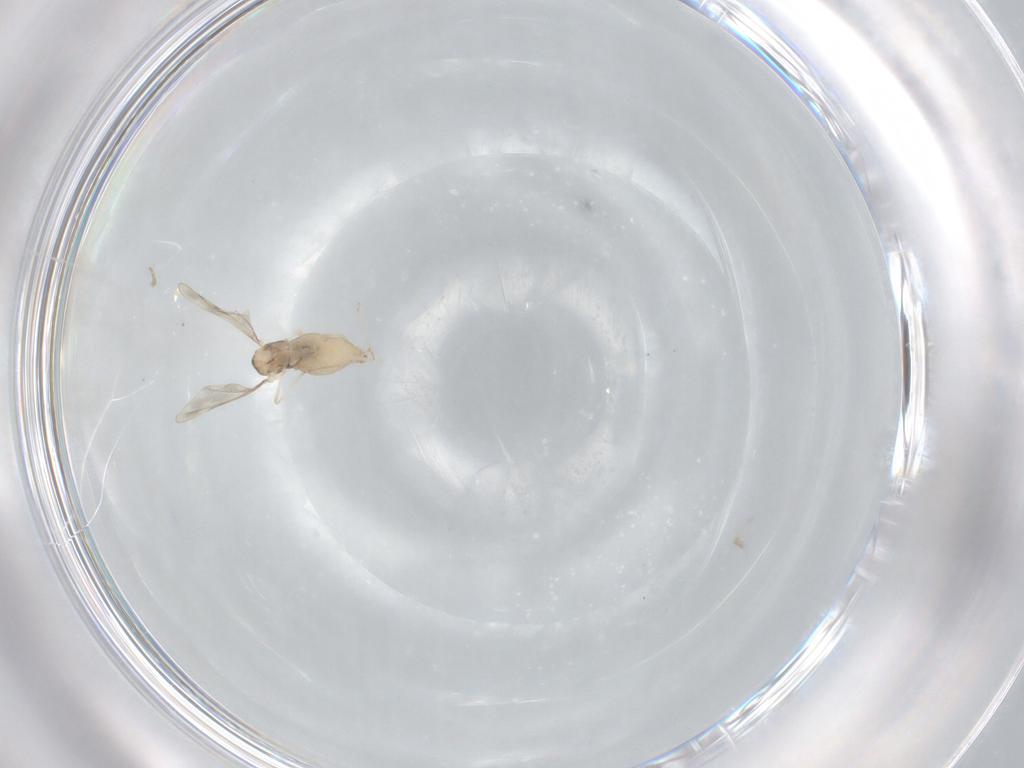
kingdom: Animalia
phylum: Arthropoda
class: Insecta
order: Diptera
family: Cecidomyiidae
